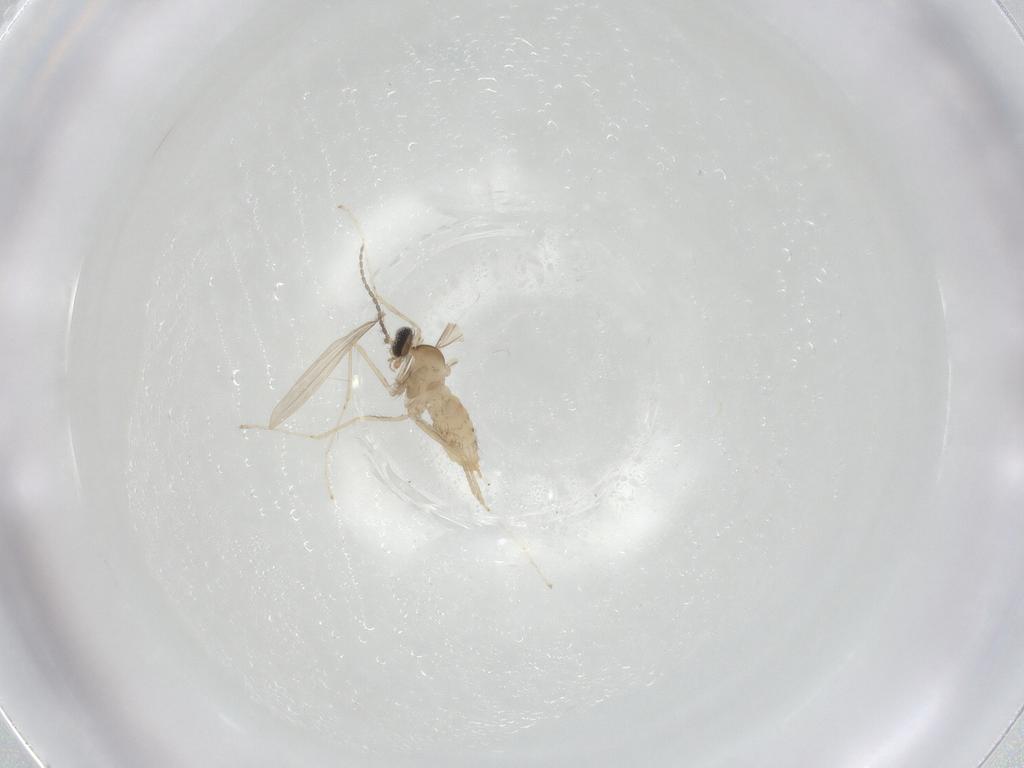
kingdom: Animalia
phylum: Arthropoda
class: Insecta
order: Diptera
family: Cecidomyiidae
